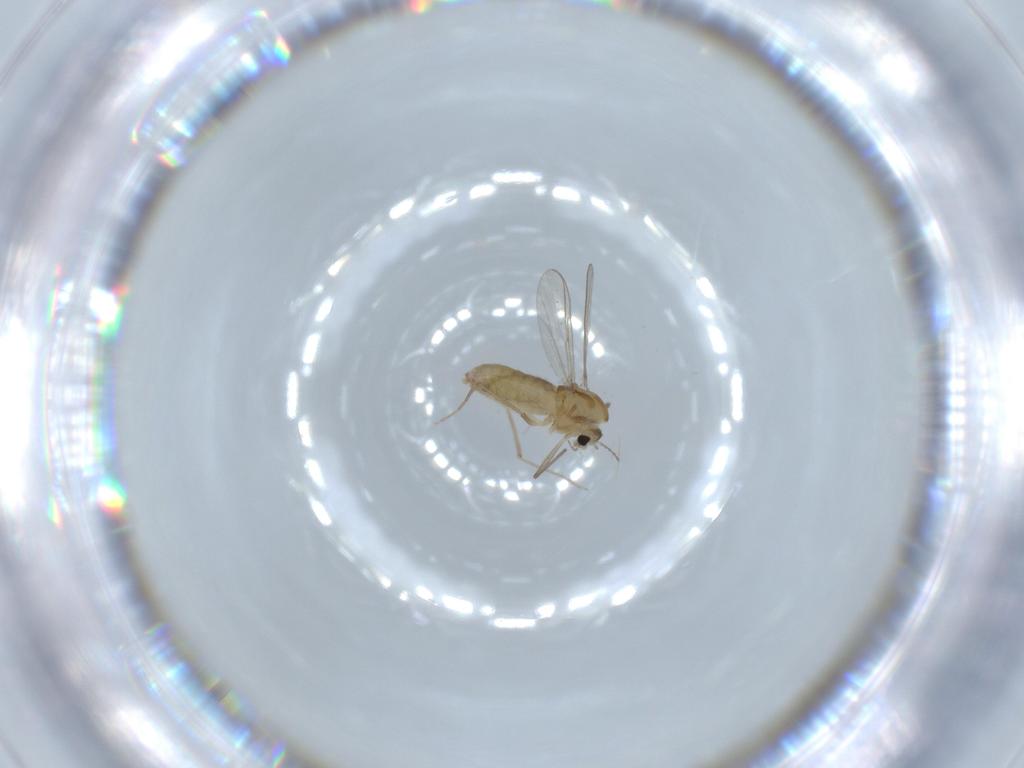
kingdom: Animalia
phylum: Arthropoda
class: Insecta
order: Diptera
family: Chironomidae
